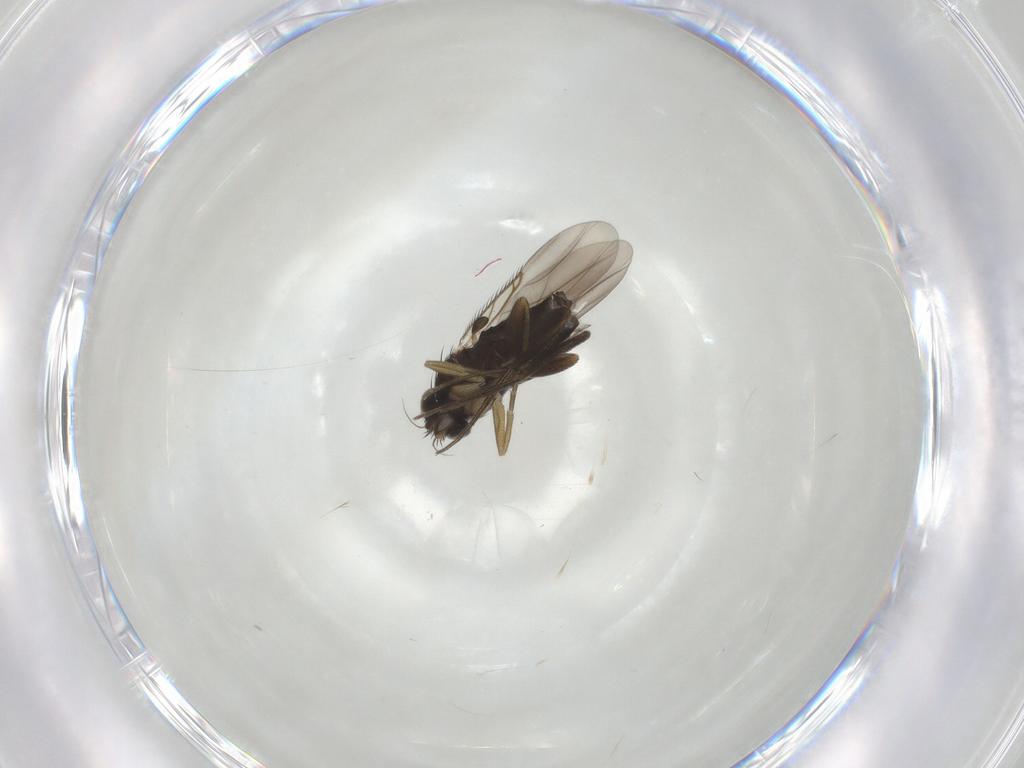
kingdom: Animalia
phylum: Arthropoda
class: Insecta
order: Diptera
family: Phoridae
